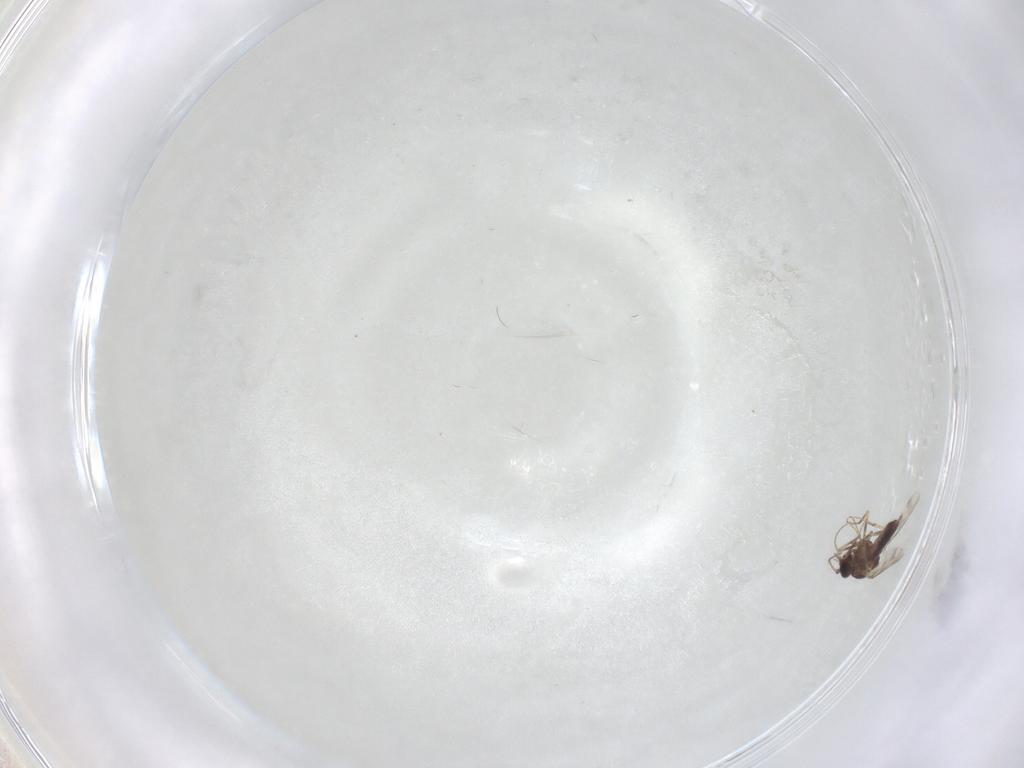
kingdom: Animalia
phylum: Arthropoda
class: Insecta
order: Diptera
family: Ceratopogonidae
